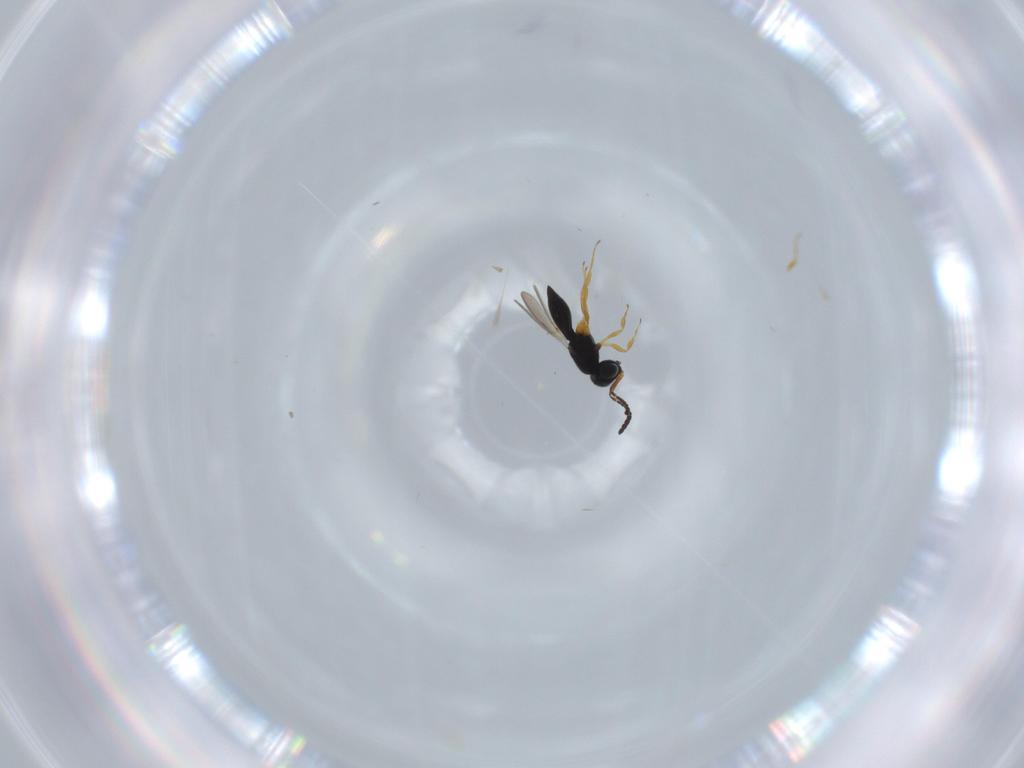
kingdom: Animalia
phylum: Arthropoda
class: Insecta
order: Hymenoptera
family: Scelionidae
